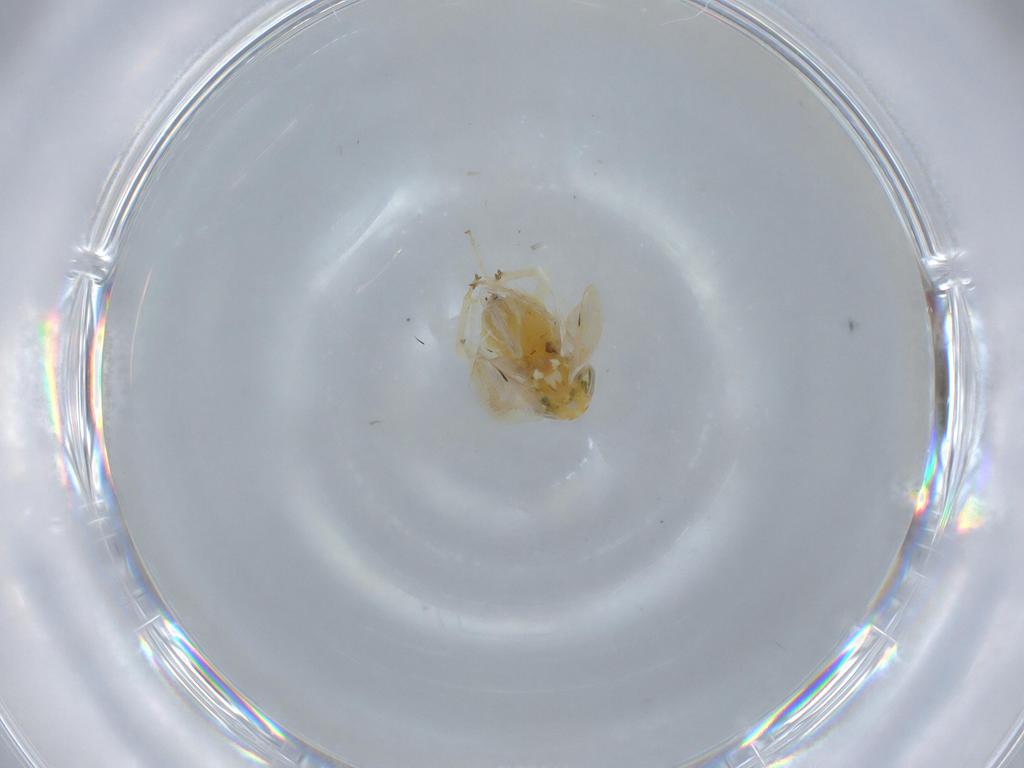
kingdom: Animalia
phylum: Arthropoda
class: Insecta
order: Hemiptera
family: Cicadellidae
